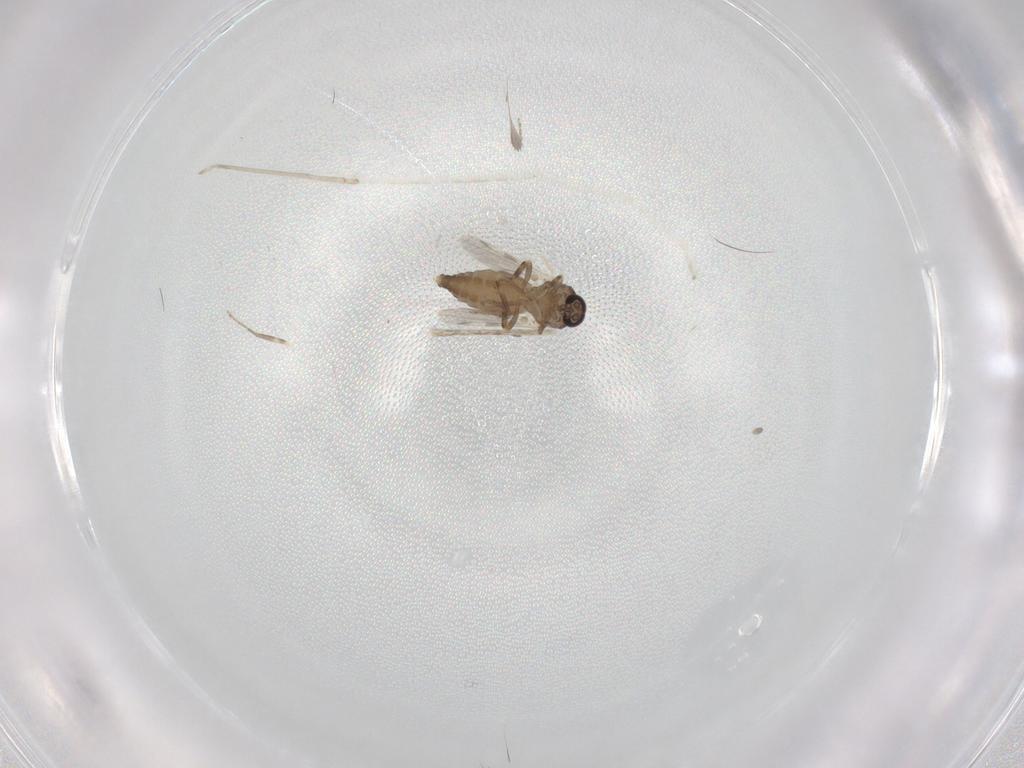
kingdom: Animalia
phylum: Arthropoda
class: Insecta
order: Diptera
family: Ceratopogonidae
